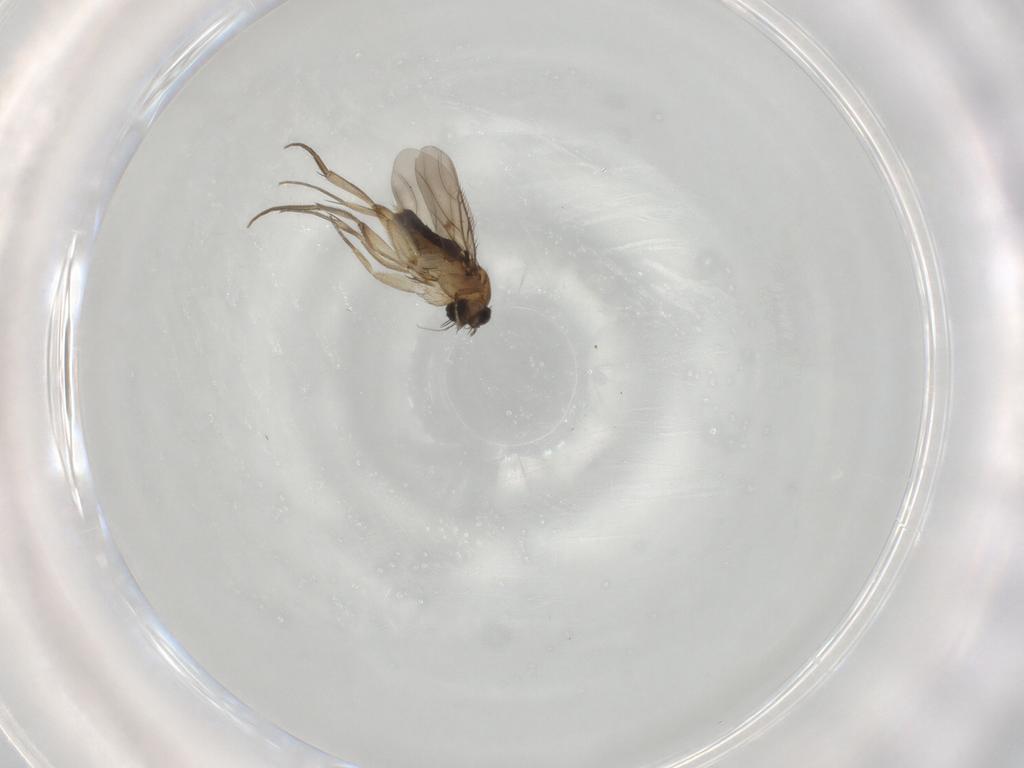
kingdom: Animalia
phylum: Arthropoda
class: Insecta
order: Diptera
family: Phoridae
